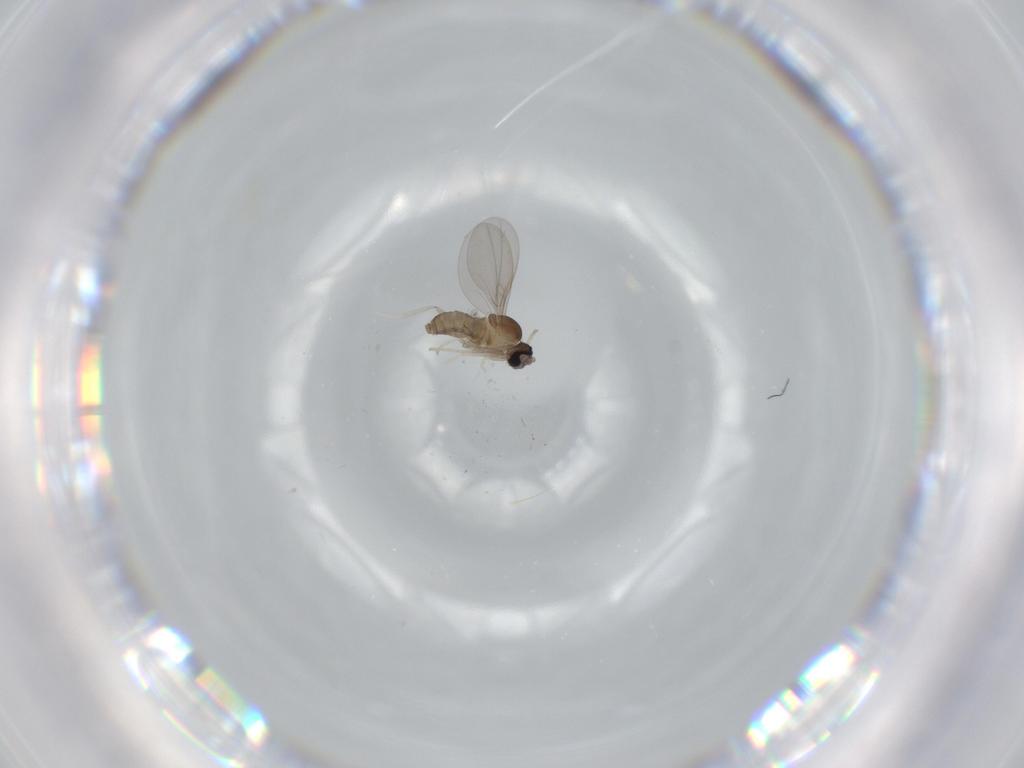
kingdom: Animalia
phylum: Arthropoda
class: Insecta
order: Diptera
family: Cecidomyiidae
